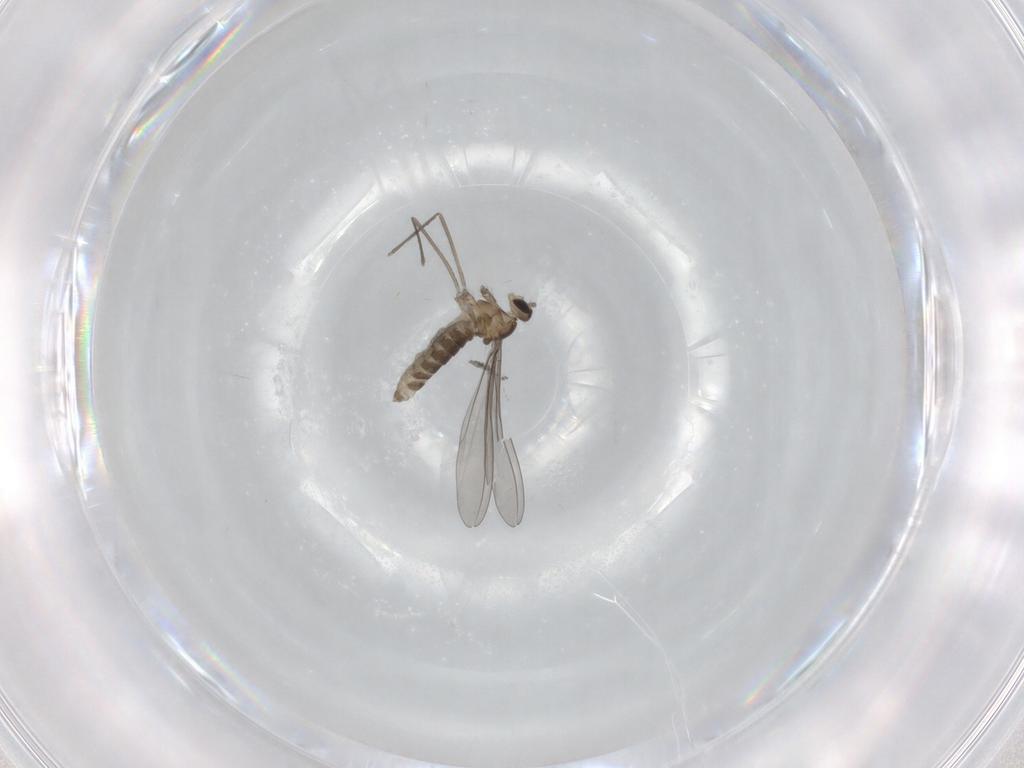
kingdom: Animalia
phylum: Arthropoda
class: Insecta
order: Diptera
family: Cecidomyiidae
